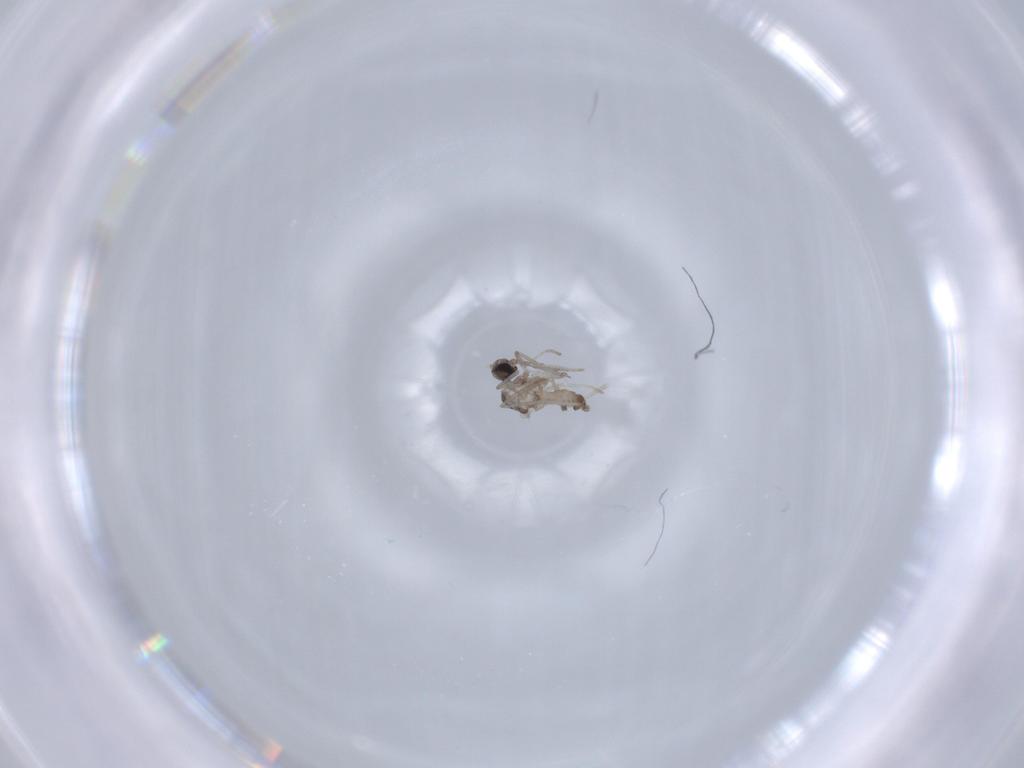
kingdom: Animalia
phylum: Arthropoda
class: Insecta
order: Diptera
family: Cecidomyiidae
